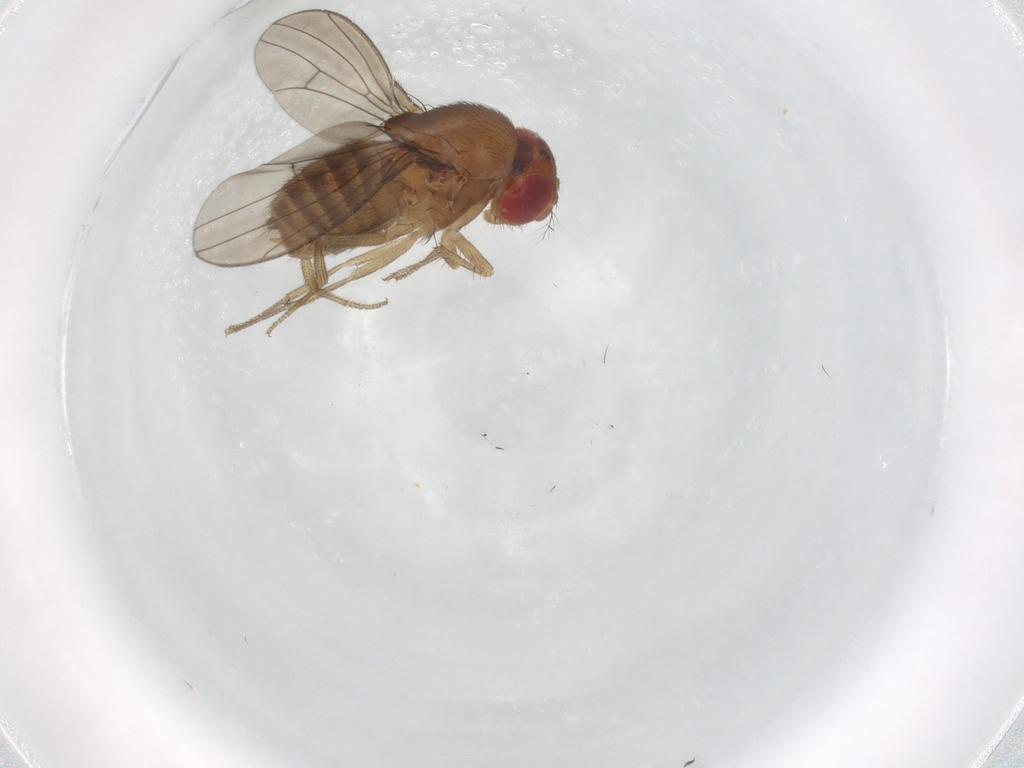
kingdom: Animalia
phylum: Arthropoda
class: Insecta
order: Diptera
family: Drosophilidae
